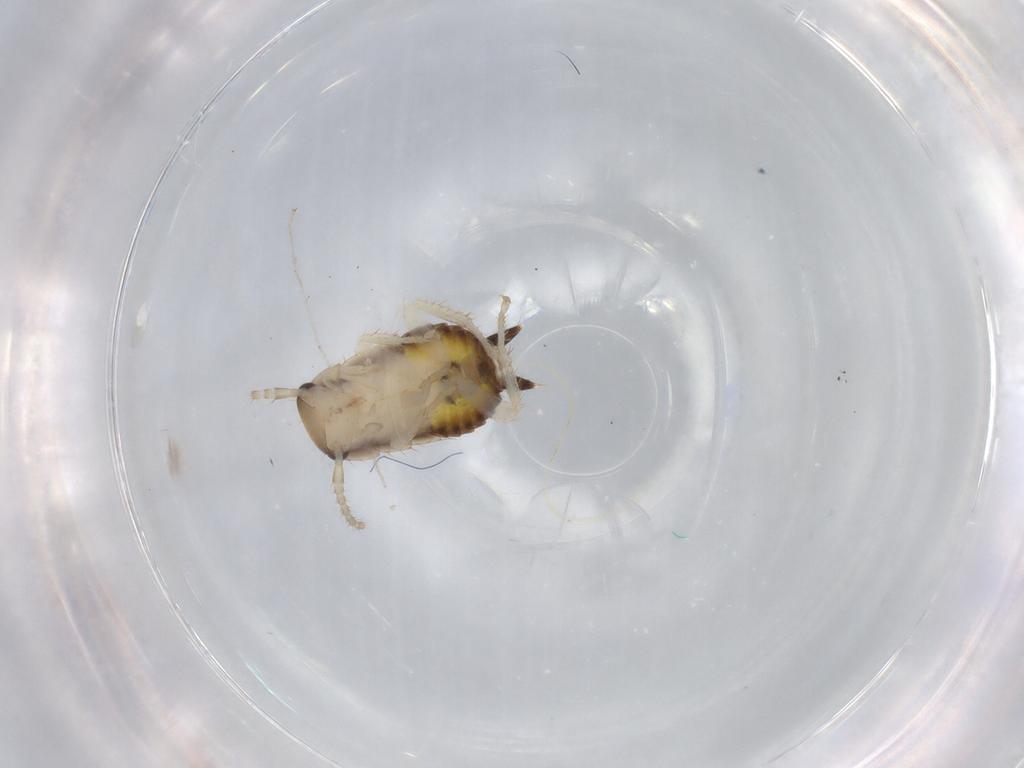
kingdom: Animalia
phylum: Arthropoda
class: Insecta
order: Blattodea
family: Ectobiidae
